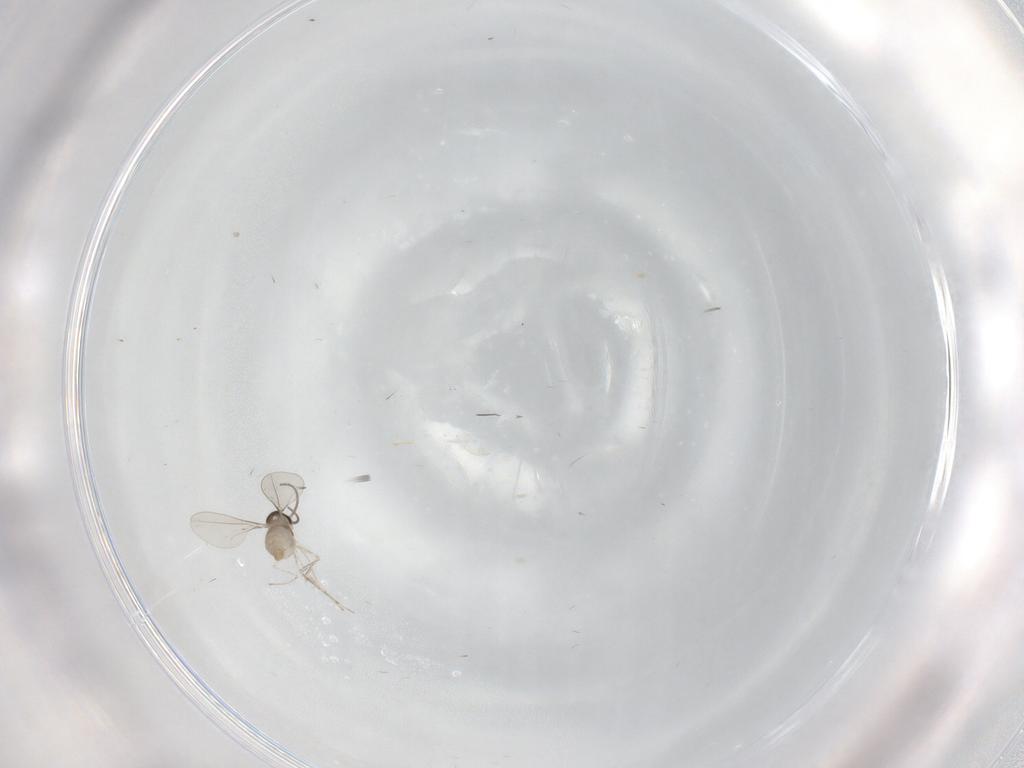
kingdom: Animalia
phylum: Arthropoda
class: Insecta
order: Diptera
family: Cecidomyiidae
